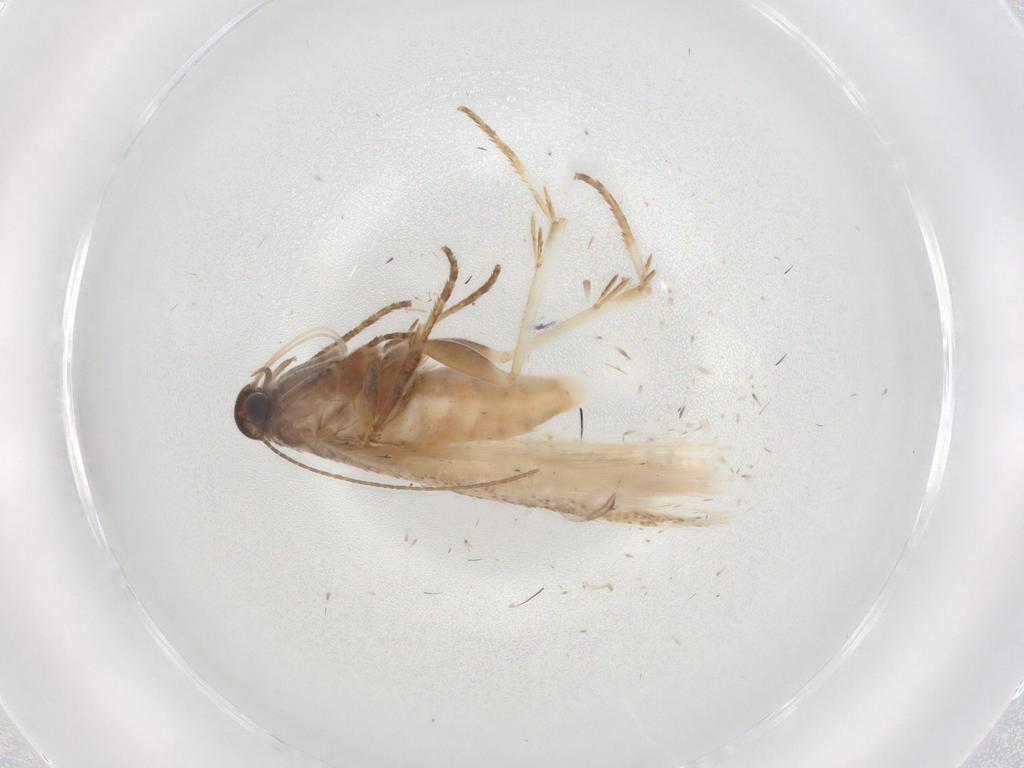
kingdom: Animalia
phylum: Arthropoda
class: Insecta
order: Lepidoptera
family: Gelechiidae
